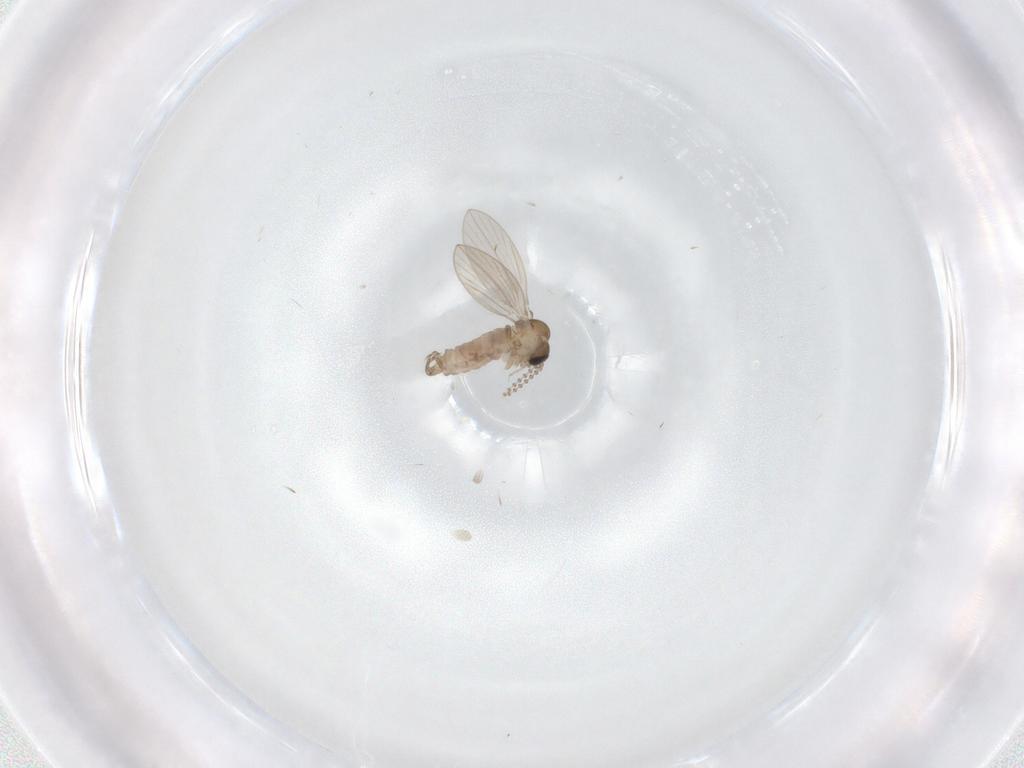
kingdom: Animalia
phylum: Arthropoda
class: Insecta
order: Diptera
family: Psychodidae
